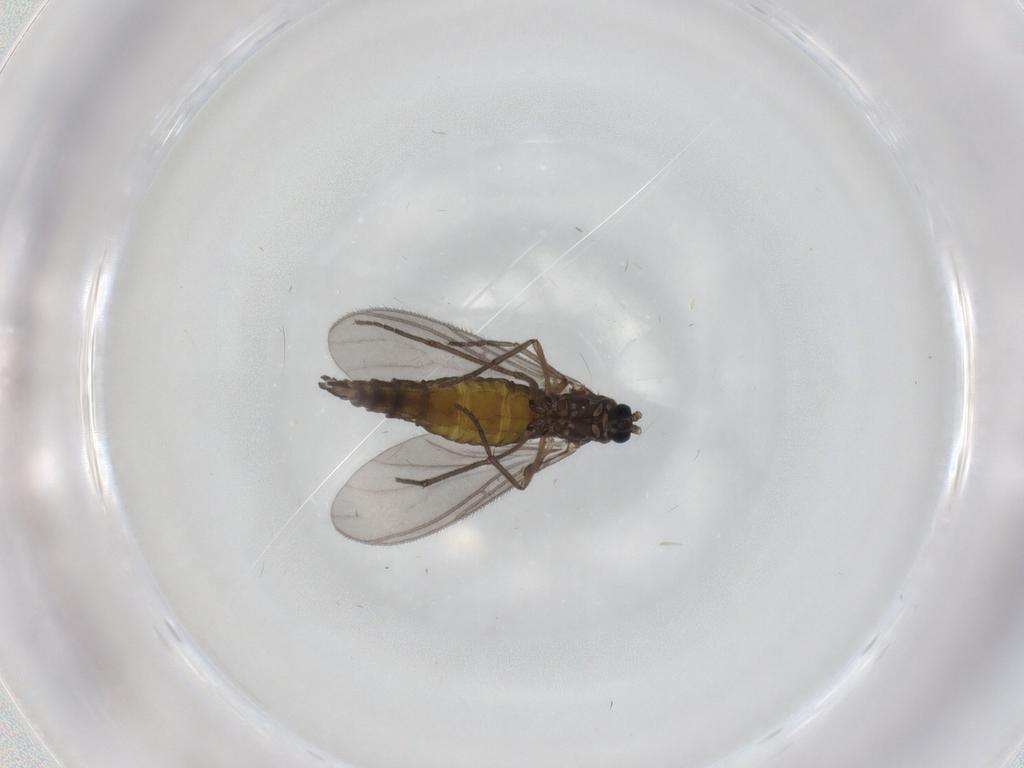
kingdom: Animalia
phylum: Arthropoda
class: Insecta
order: Diptera
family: Sciaridae
